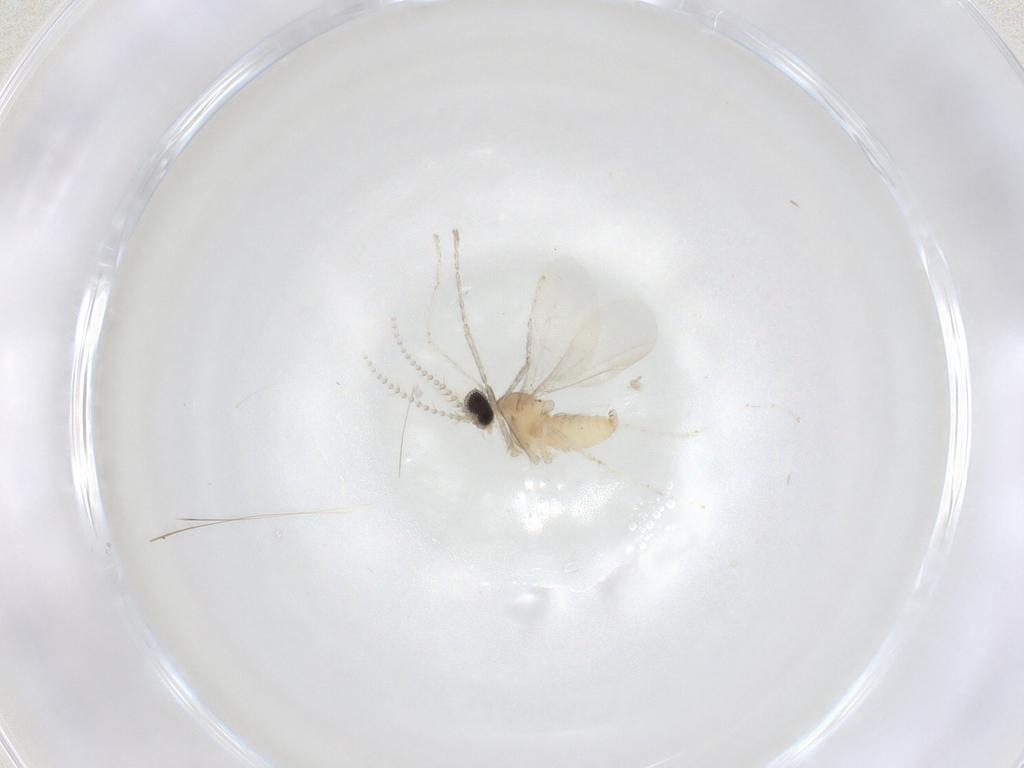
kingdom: Animalia
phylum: Arthropoda
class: Insecta
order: Diptera
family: Cecidomyiidae
